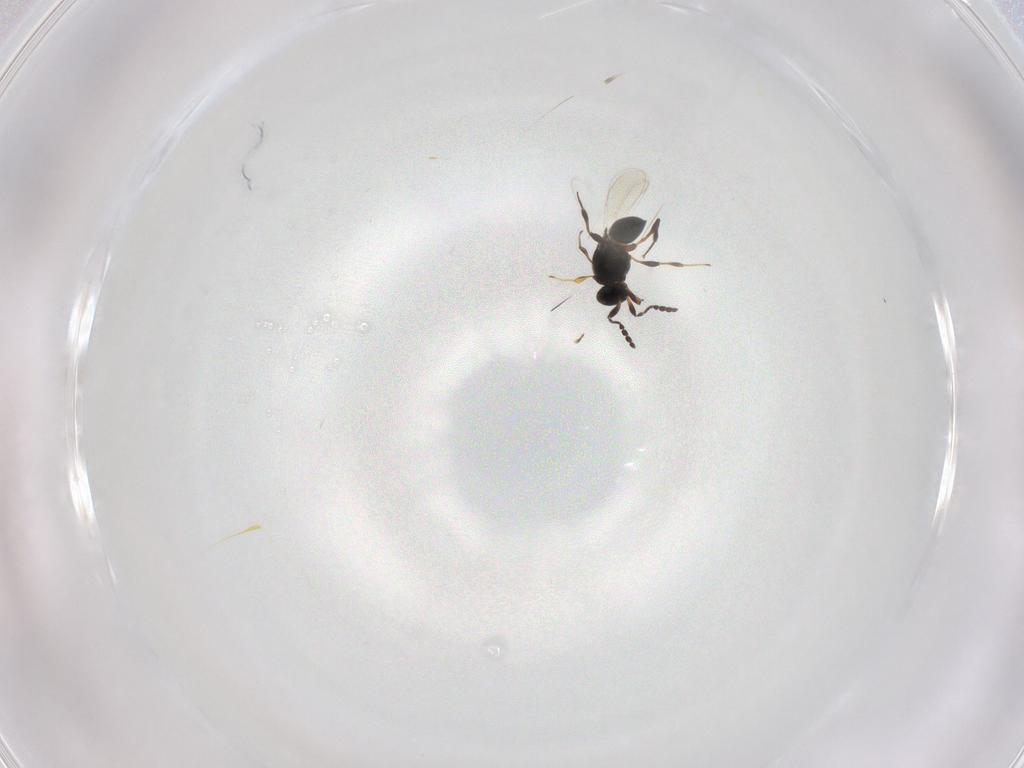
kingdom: Animalia
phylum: Arthropoda
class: Insecta
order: Hymenoptera
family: Platygastridae
